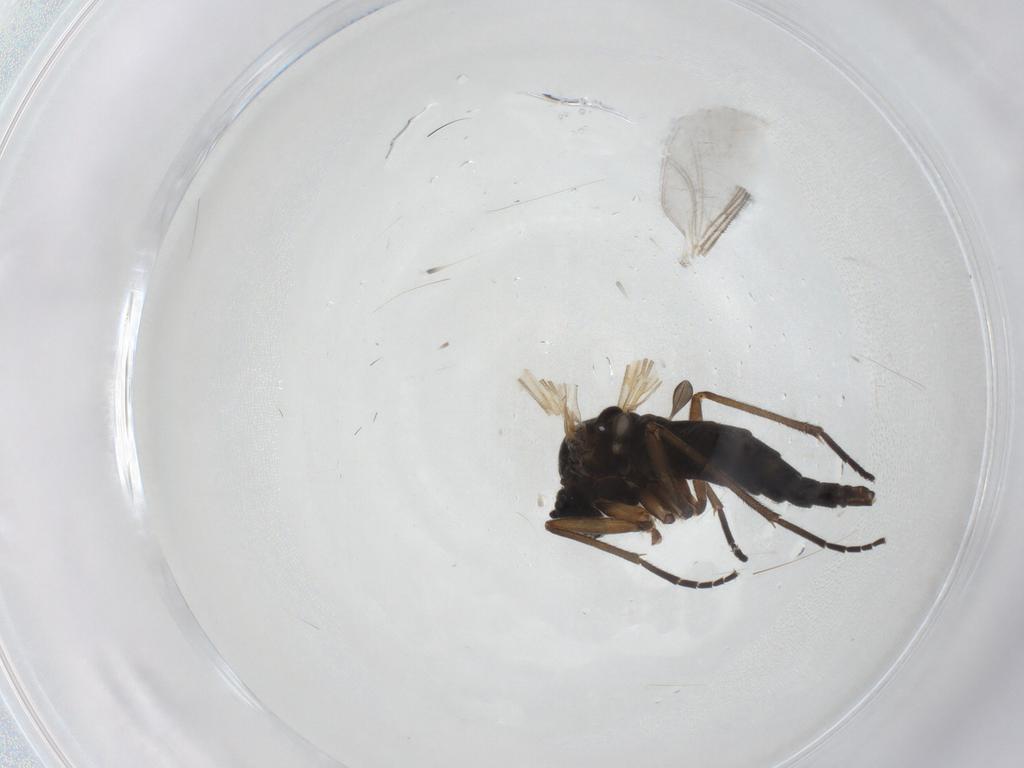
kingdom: Animalia
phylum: Arthropoda
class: Insecta
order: Diptera
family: Sciaridae
